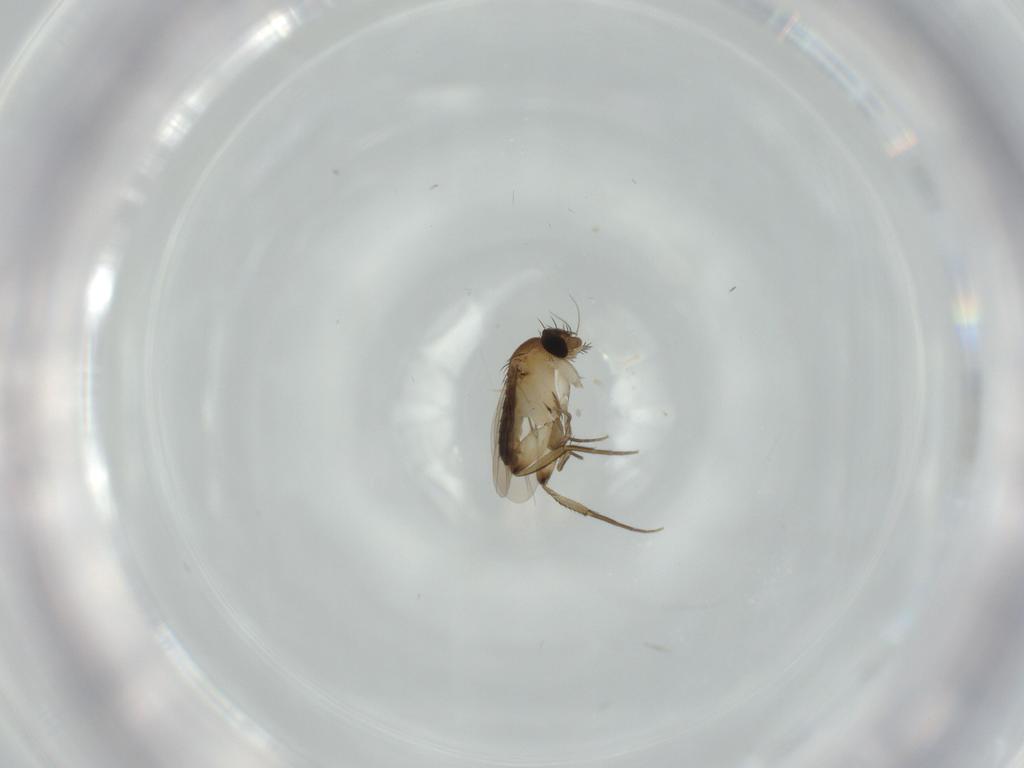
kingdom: Animalia
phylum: Arthropoda
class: Insecta
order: Diptera
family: Phoridae
